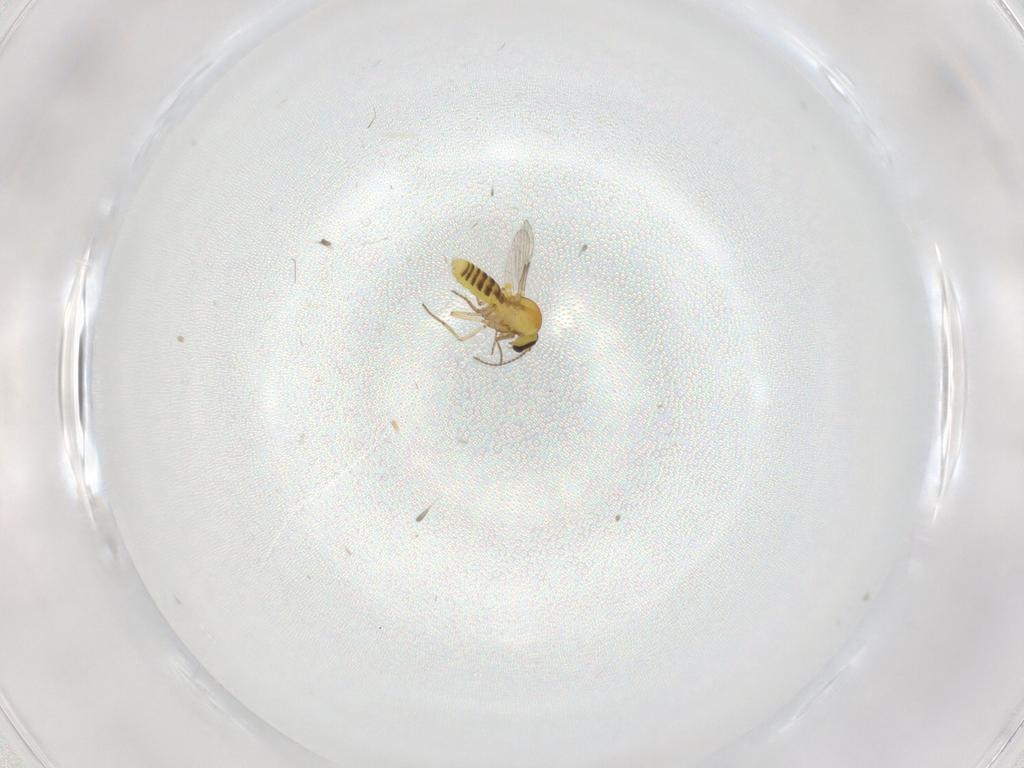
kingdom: Animalia
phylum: Arthropoda
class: Insecta
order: Diptera
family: Ceratopogonidae
